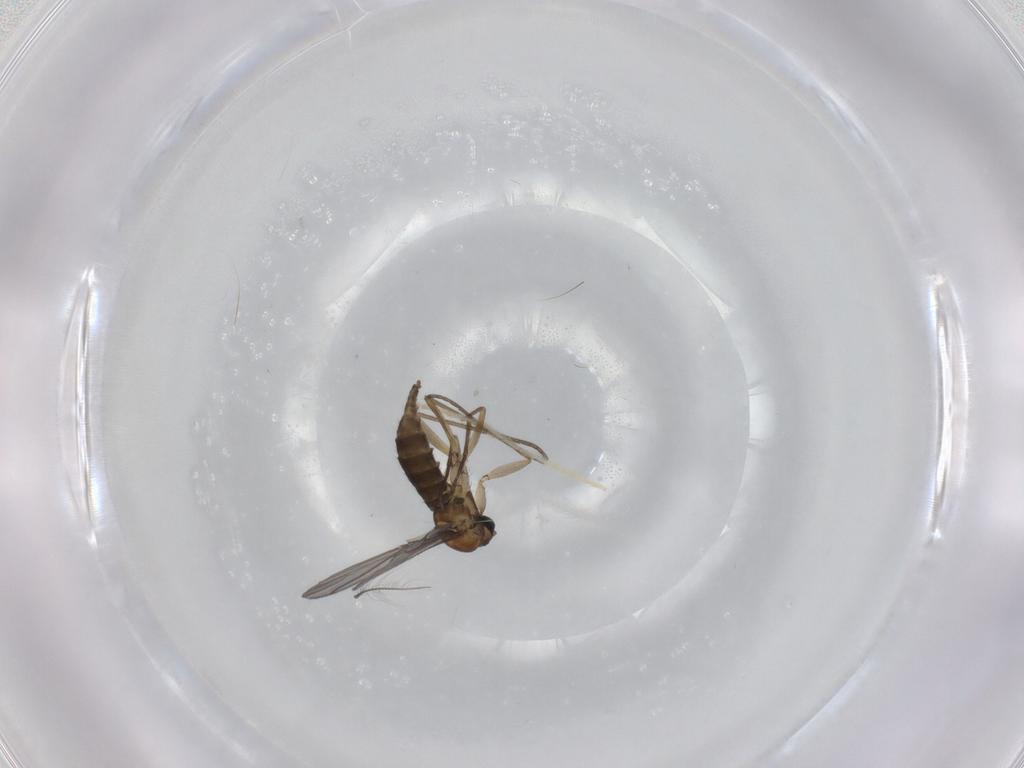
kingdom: Animalia
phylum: Arthropoda
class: Insecta
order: Diptera
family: Sciaridae
